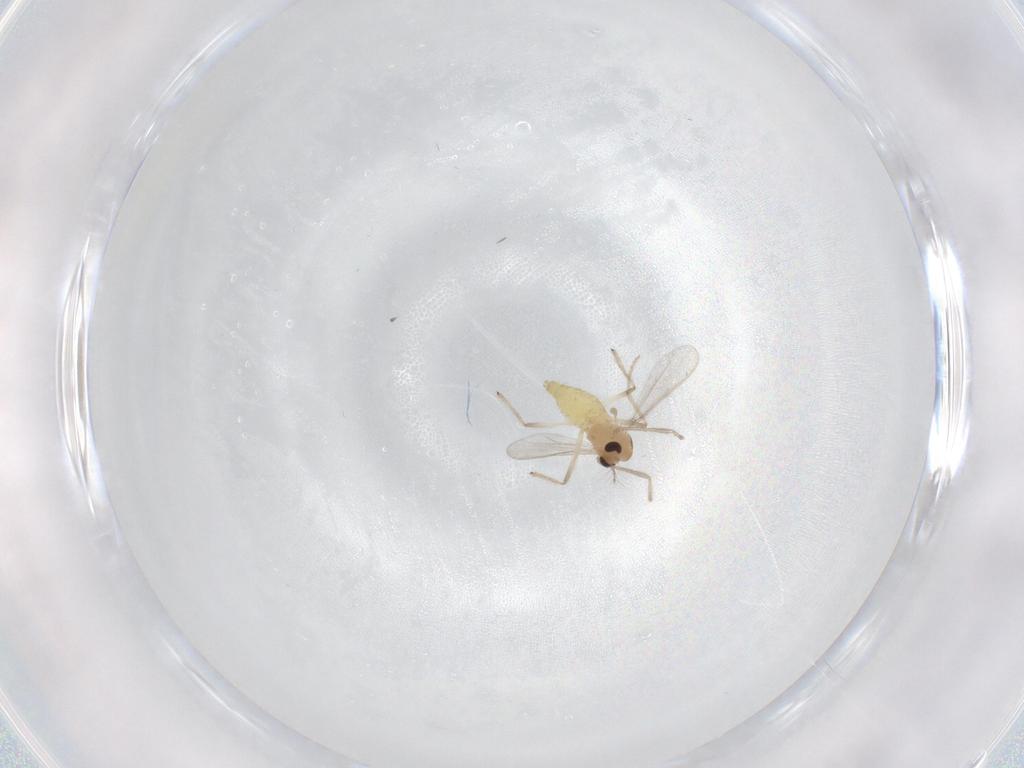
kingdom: Animalia
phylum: Arthropoda
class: Insecta
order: Diptera
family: Chironomidae
